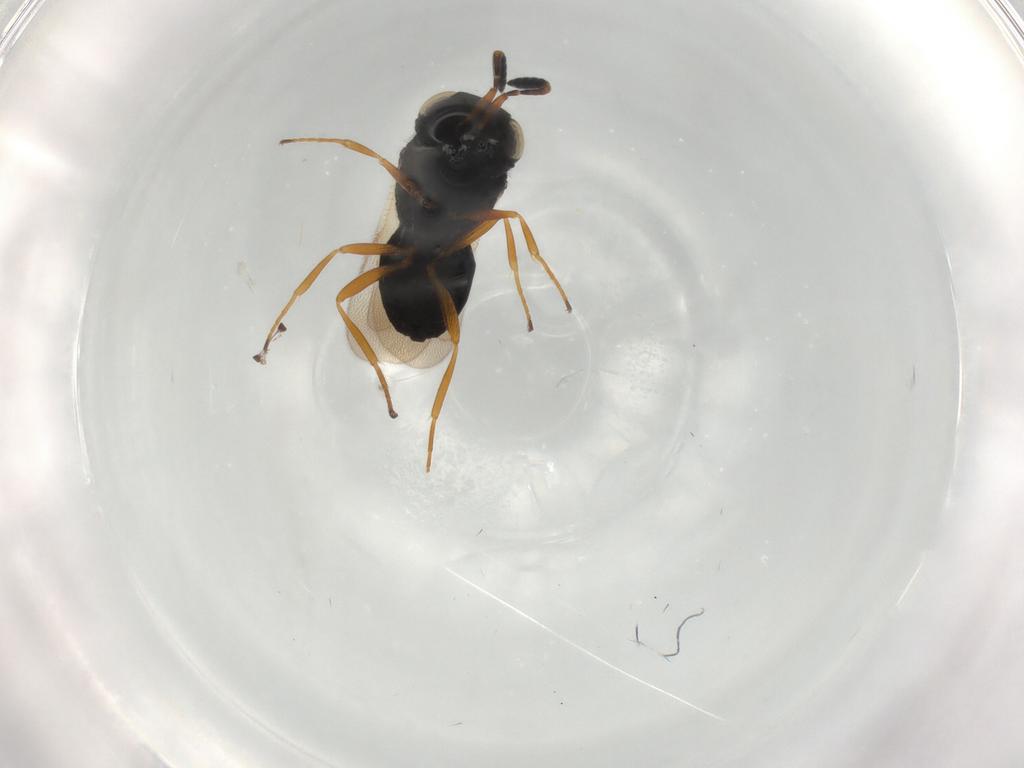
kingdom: Animalia
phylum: Arthropoda
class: Insecta
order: Hymenoptera
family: Scelionidae
